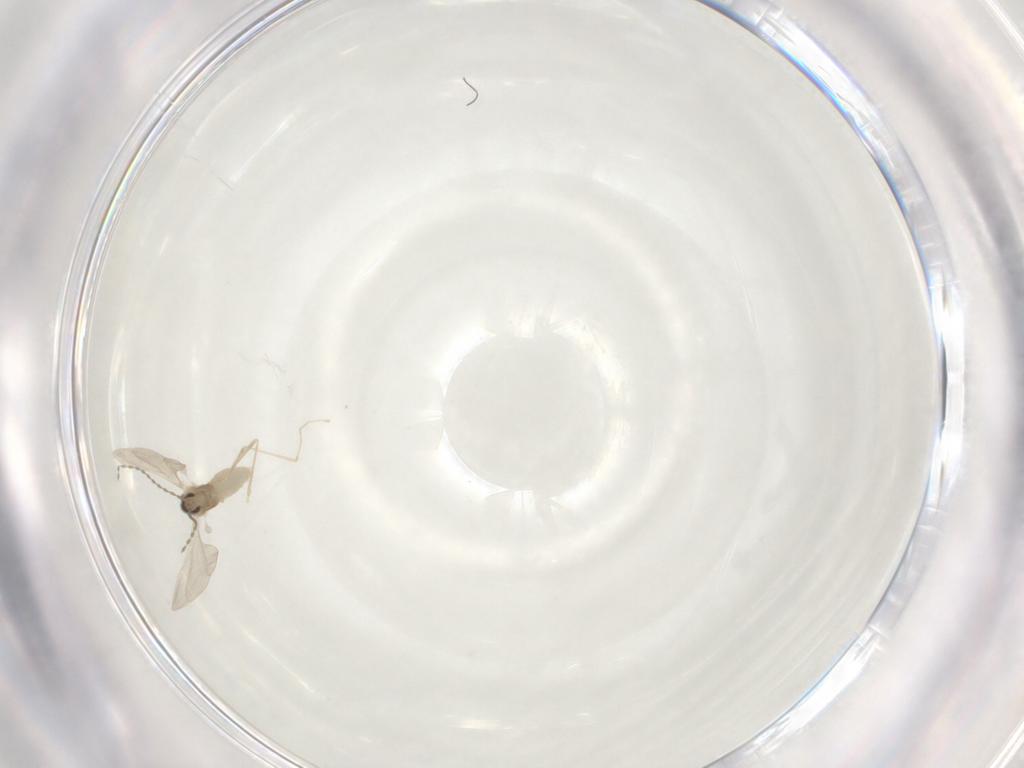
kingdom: Animalia
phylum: Arthropoda
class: Insecta
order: Diptera
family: Cecidomyiidae
